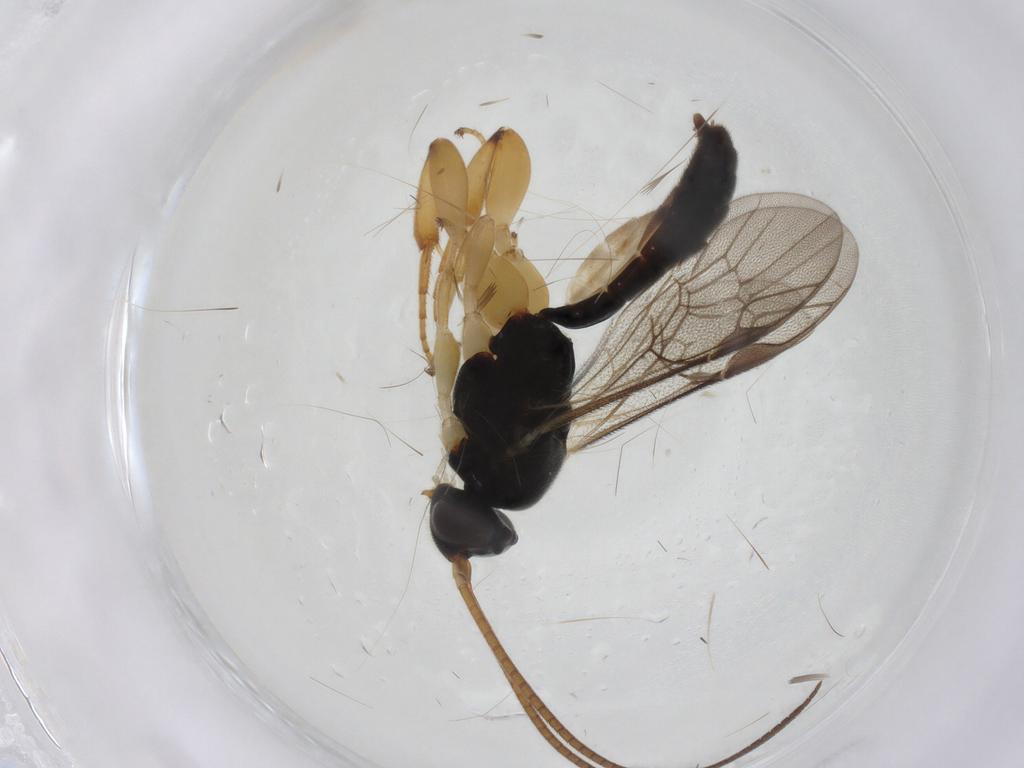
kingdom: Animalia
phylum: Arthropoda
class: Insecta
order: Hymenoptera
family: Ichneumonidae
